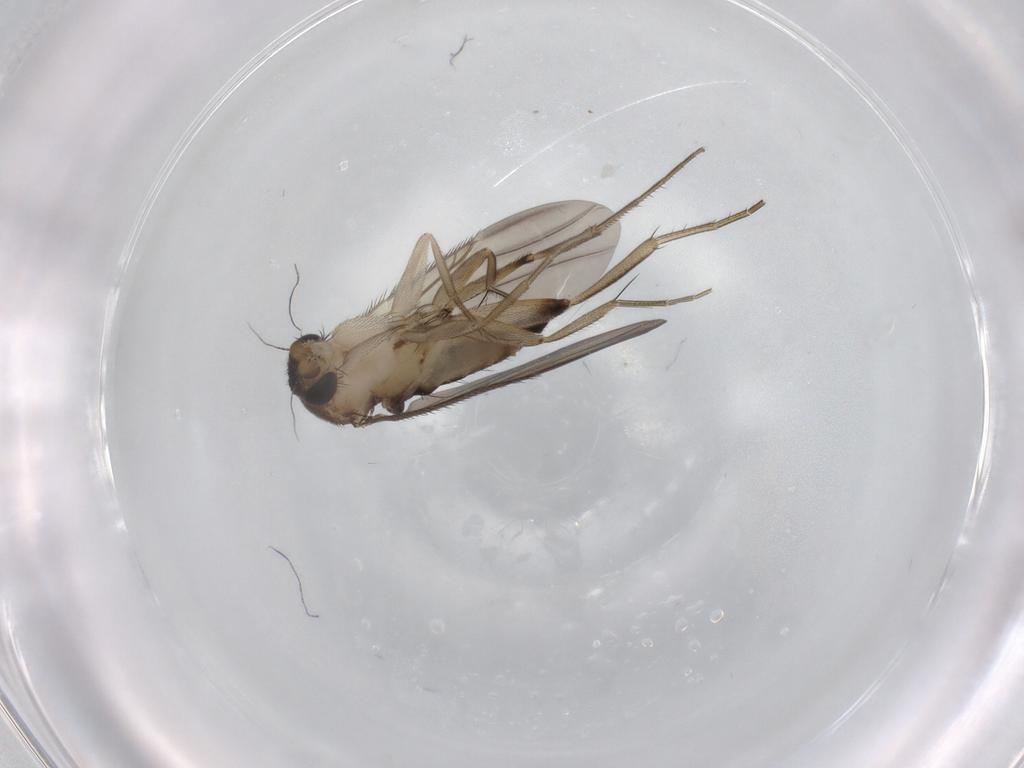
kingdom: Animalia
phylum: Arthropoda
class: Insecta
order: Diptera
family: Phoridae
